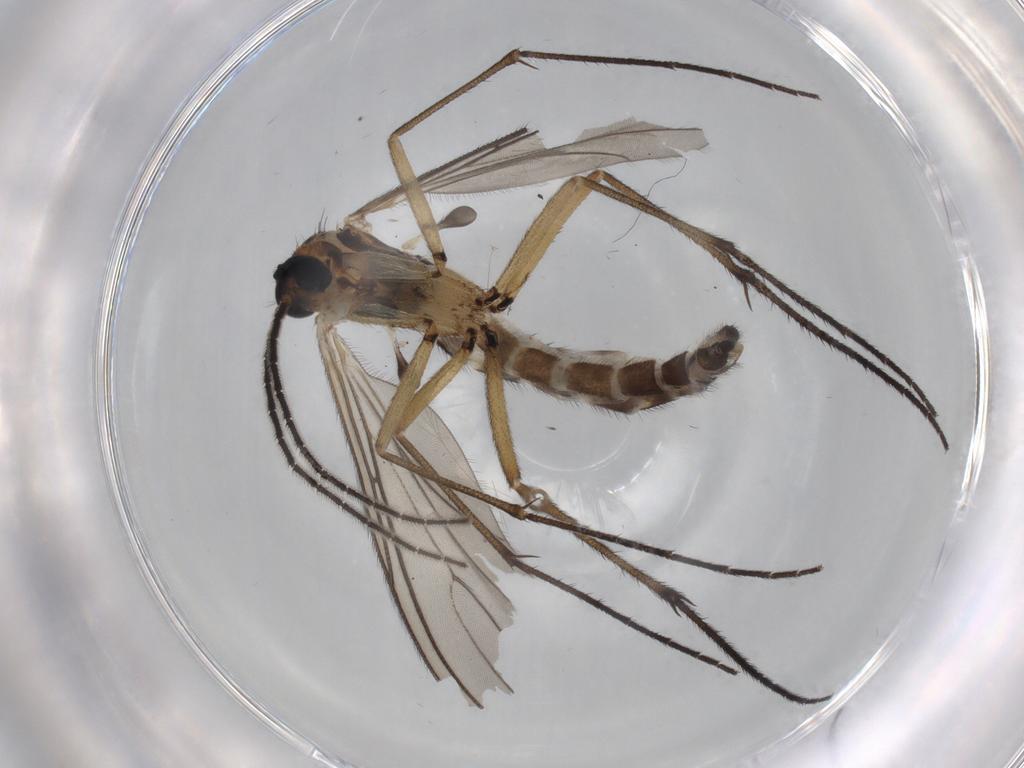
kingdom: Animalia
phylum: Arthropoda
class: Insecta
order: Diptera
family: Sciaridae
